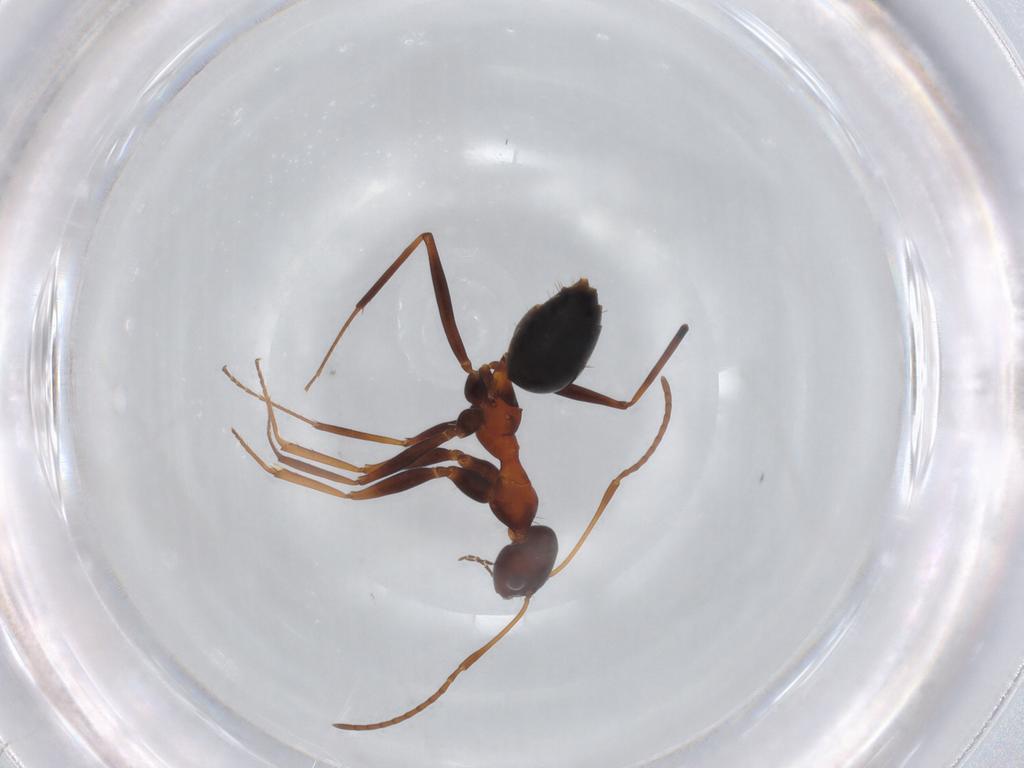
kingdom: Animalia
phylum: Arthropoda
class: Insecta
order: Hymenoptera
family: Formicidae
